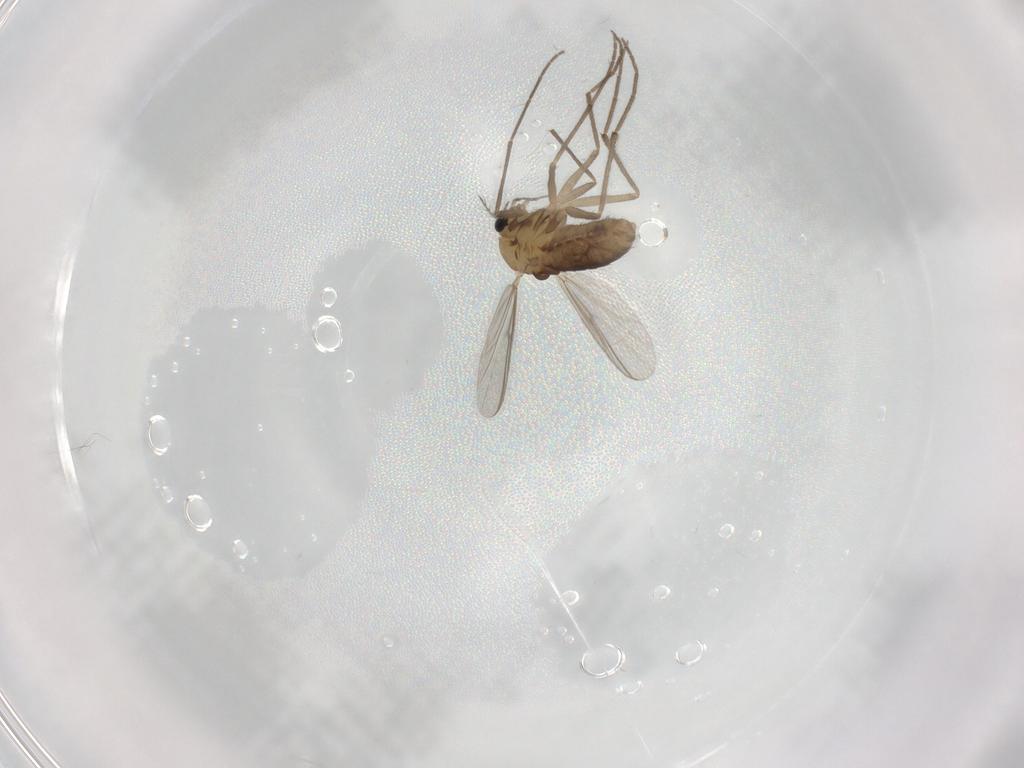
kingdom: Animalia
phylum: Arthropoda
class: Insecta
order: Diptera
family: Chironomidae
